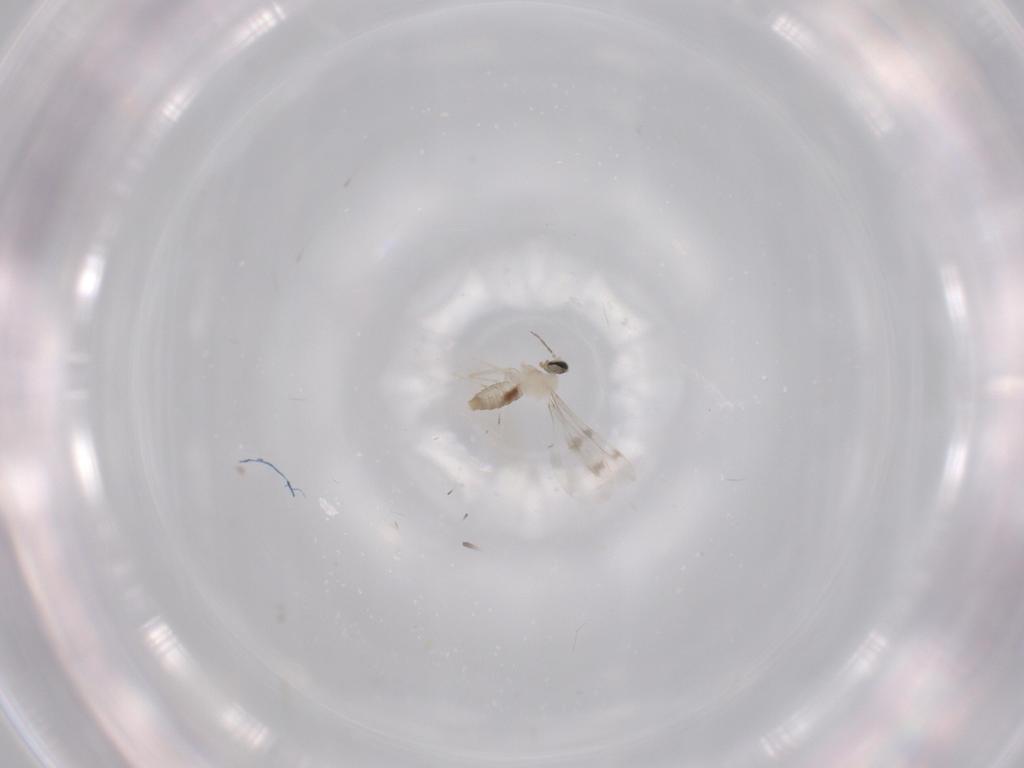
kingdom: Animalia
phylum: Arthropoda
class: Insecta
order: Diptera
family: Cecidomyiidae
